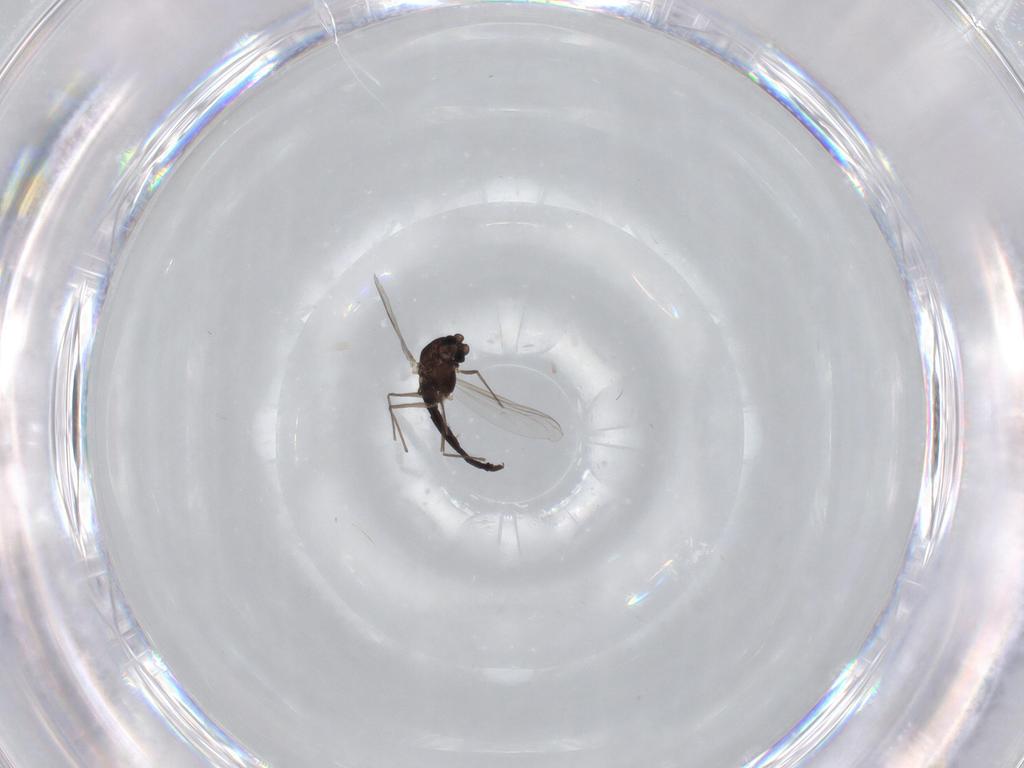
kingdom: Animalia
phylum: Arthropoda
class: Insecta
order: Diptera
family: Chironomidae
